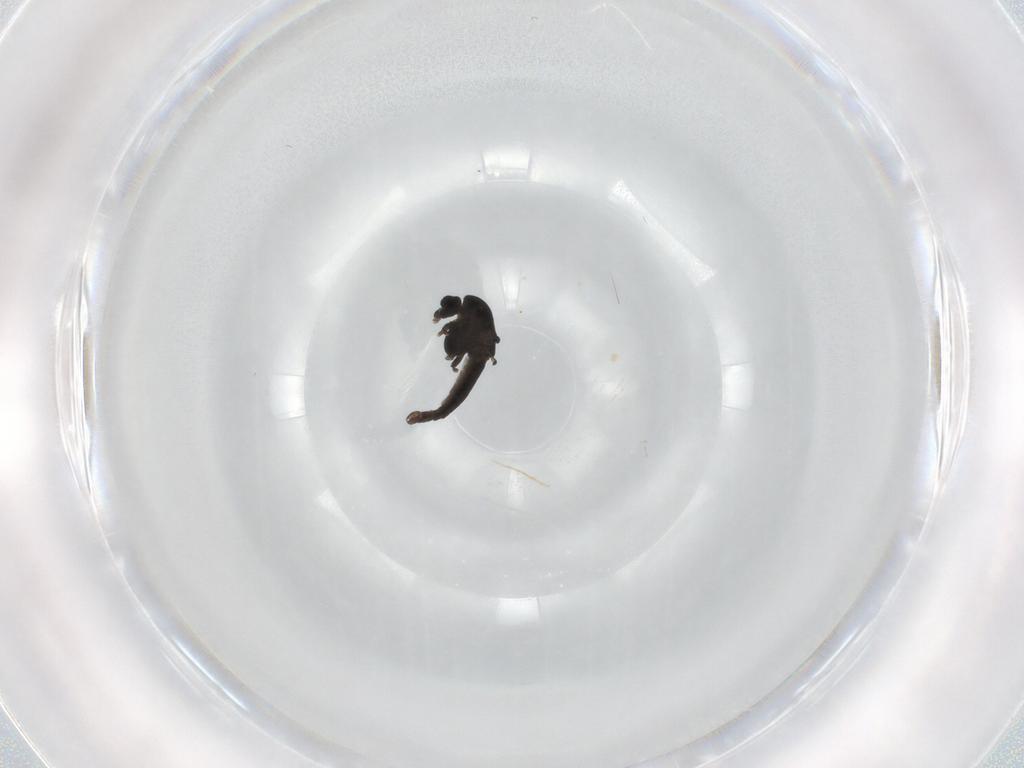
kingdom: Animalia
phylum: Arthropoda
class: Insecta
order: Diptera
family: Chironomidae
